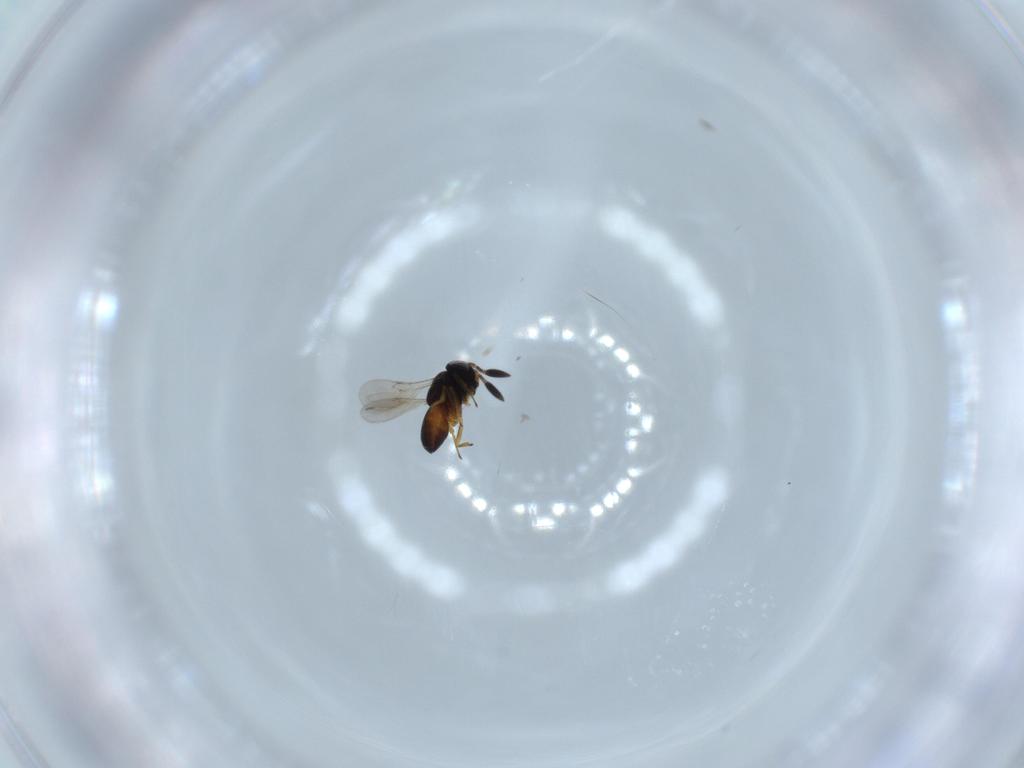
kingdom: Animalia
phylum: Arthropoda
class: Insecta
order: Hymenoptera
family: Scelionidae
